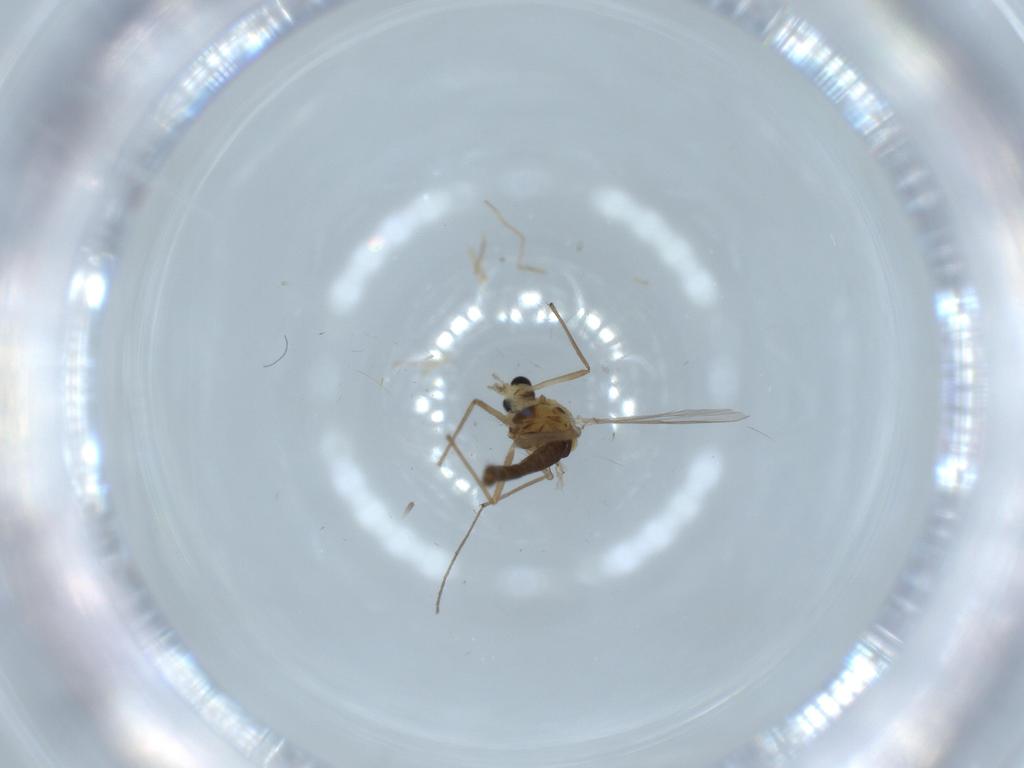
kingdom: Animalia
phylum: Arthropoda
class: Insecta
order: Diptera
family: Chironomidae
